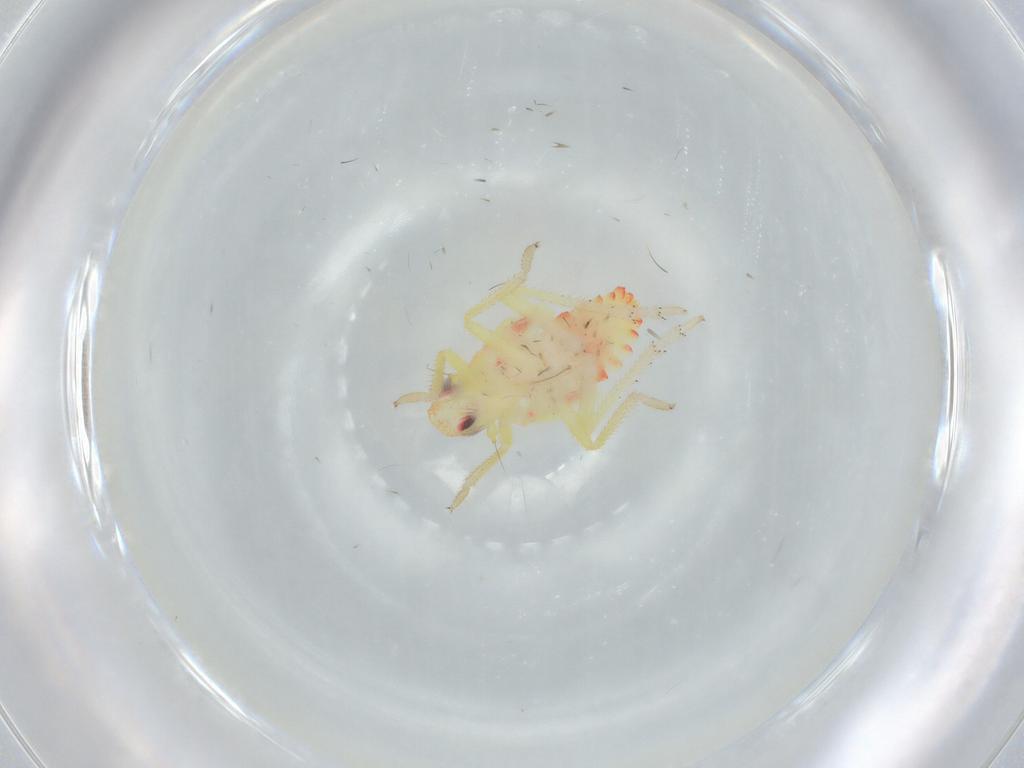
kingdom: Animalia
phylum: Arthropoda
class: Insecta
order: Hemiptera
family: Tropiduchidae
